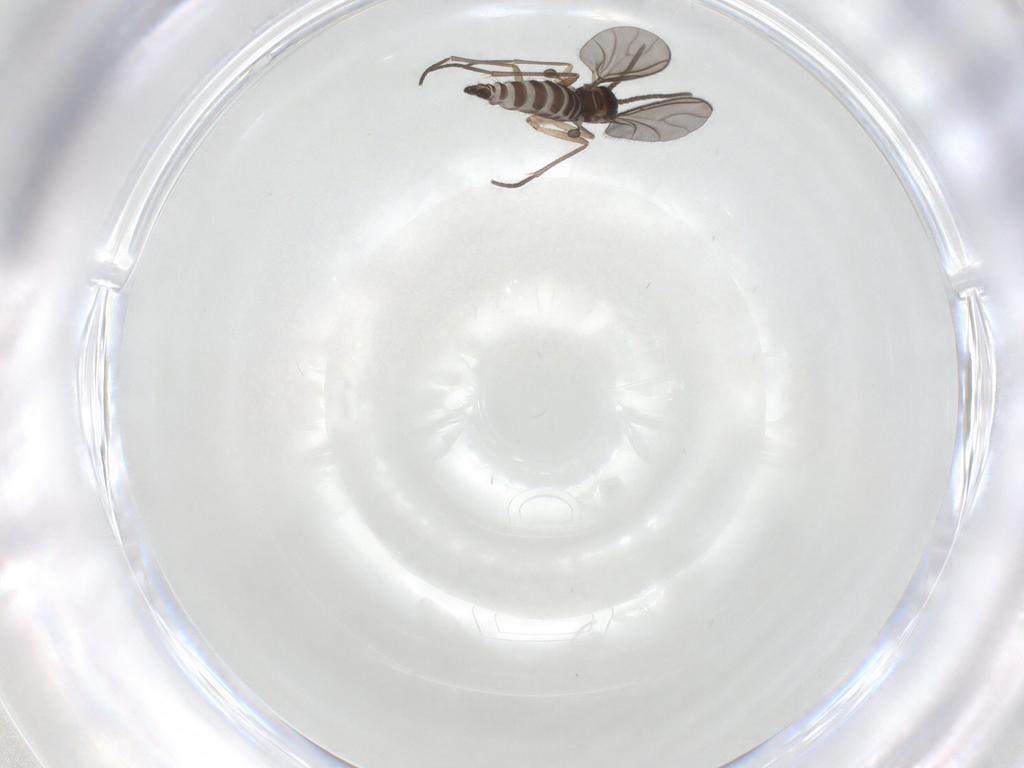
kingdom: Animalia
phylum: Arthropoda
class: Insecta
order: Diptera
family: Sciaridae
